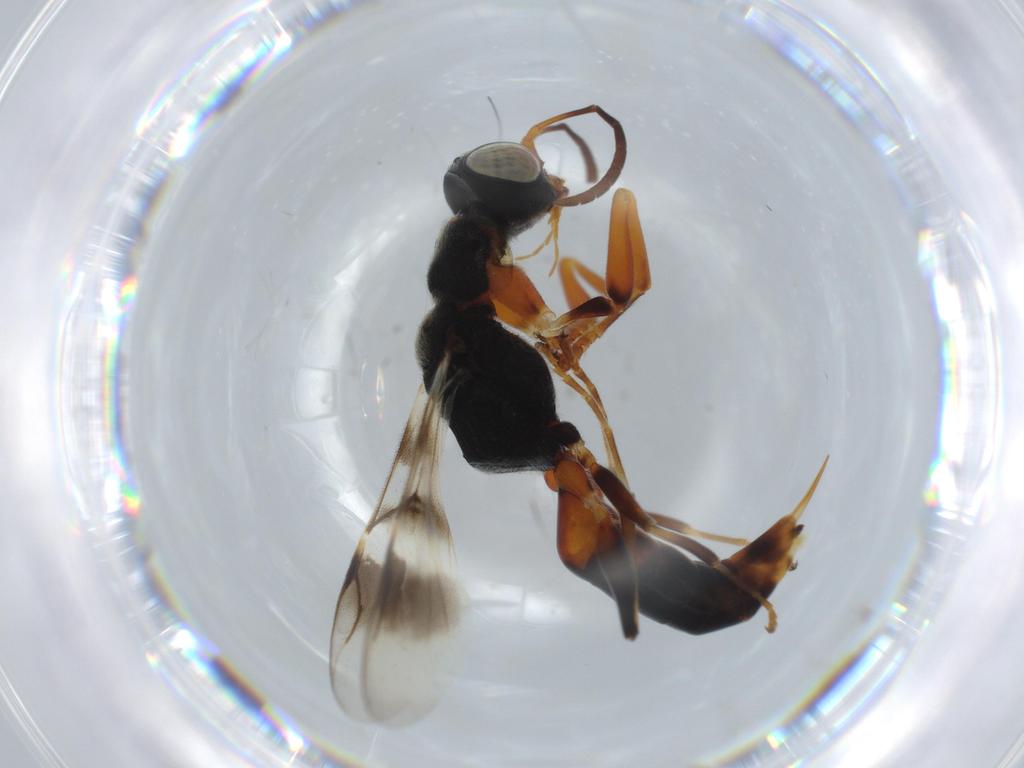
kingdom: Animalia
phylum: Arthropoda
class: Insecta
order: Hymenoptera
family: Dryinidae
